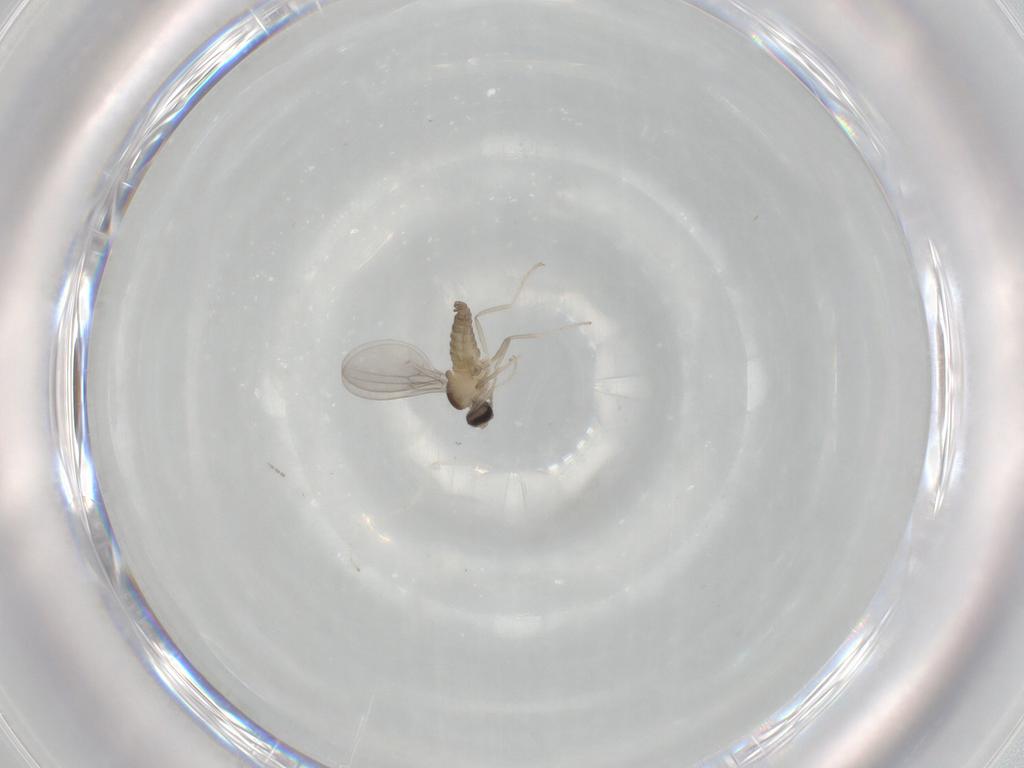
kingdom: Animalia
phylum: Arthropoda
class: Insecta
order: Diptera
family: Cecidomyiidae
